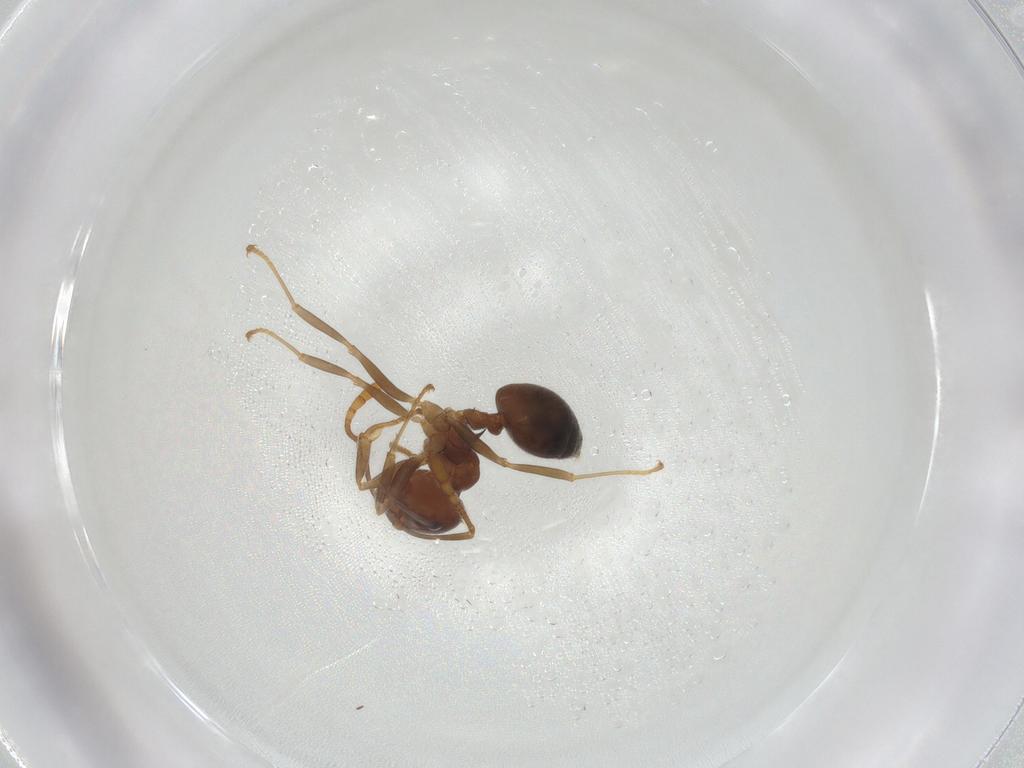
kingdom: Animalia
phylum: Arthropoda
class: Insecta
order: Hymenoptera
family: Formicidae
